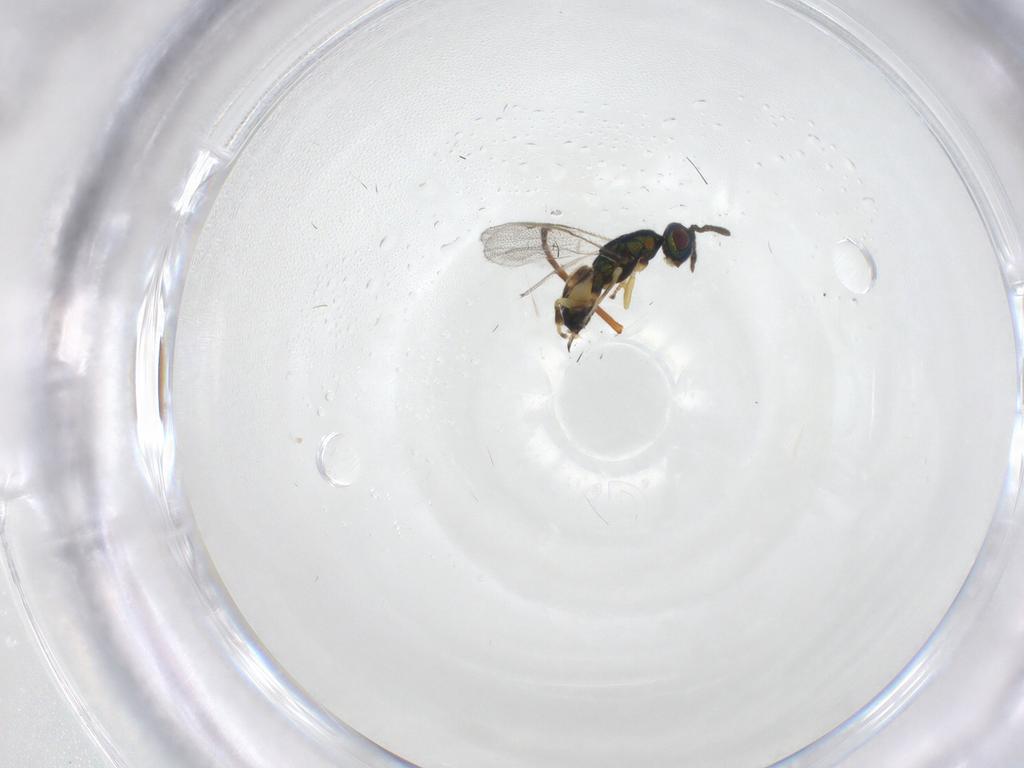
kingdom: Animalia
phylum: Arthropoda
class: Insecta
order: Hymenoptera
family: Torymidae
